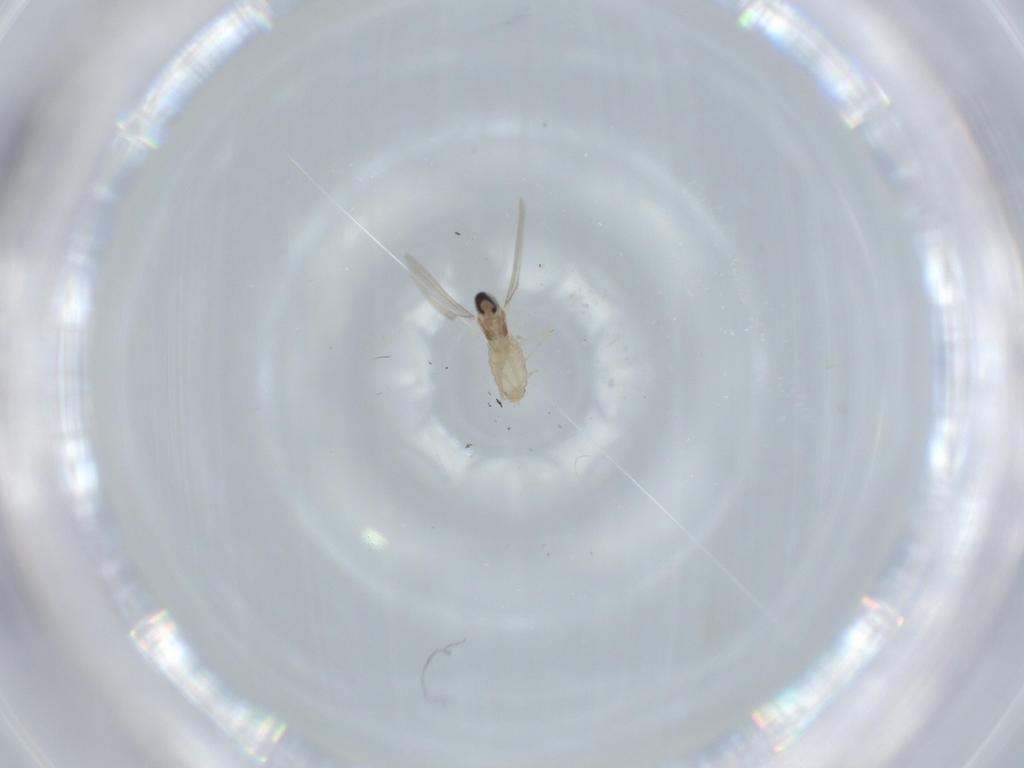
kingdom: Animalia
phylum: Arthropoda
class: Insecta
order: Diptera
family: Cecidomyiidae
